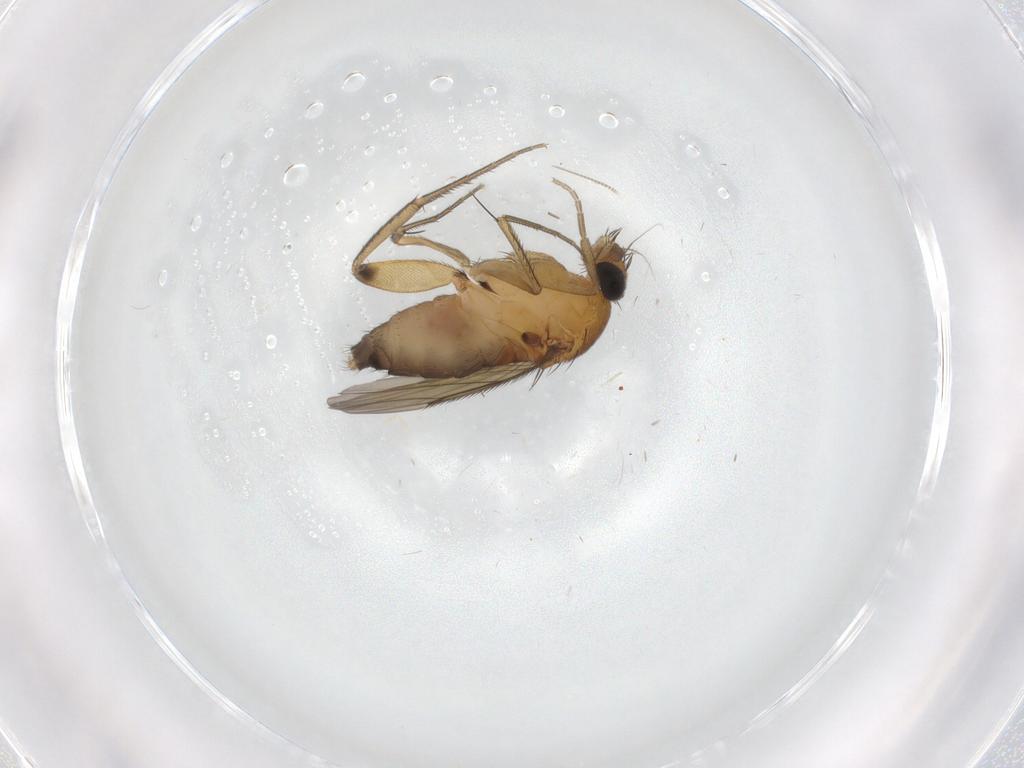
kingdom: Animalia
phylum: Arthropoda
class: Insecta
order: Diptera
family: Phoridae
